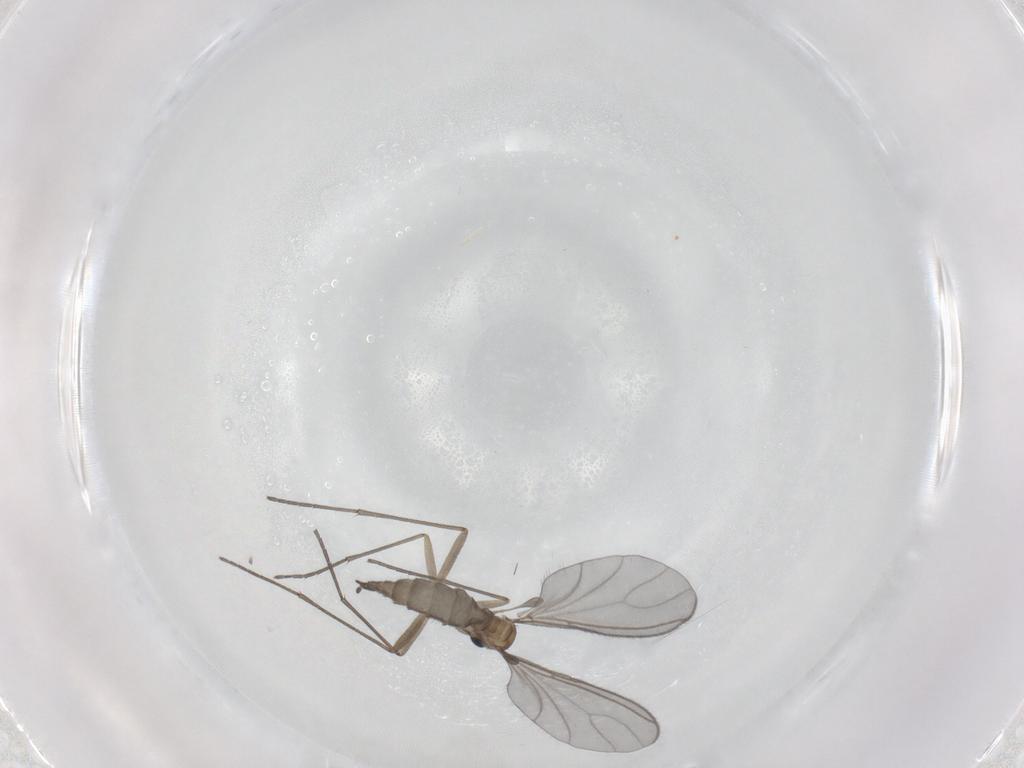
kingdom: Animalia
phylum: Arthropoda
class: Insecta
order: Diptera
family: Sciaridae
